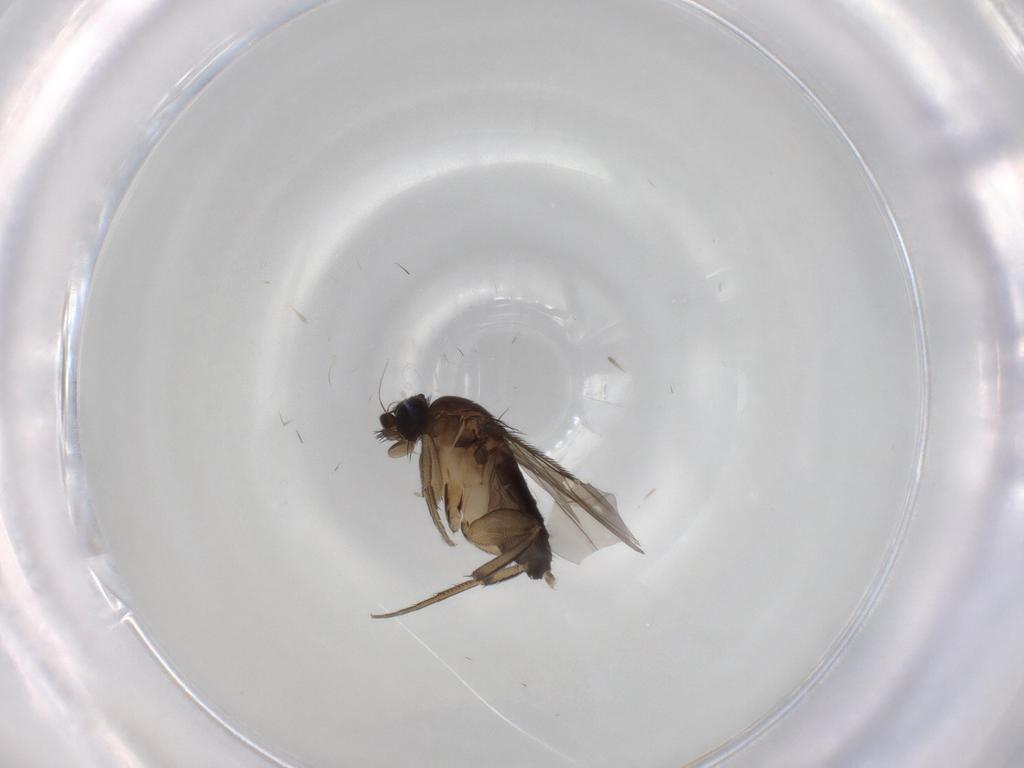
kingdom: Animalia
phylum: Arthropoda
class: Insecta
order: Diptera
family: Phoridae
